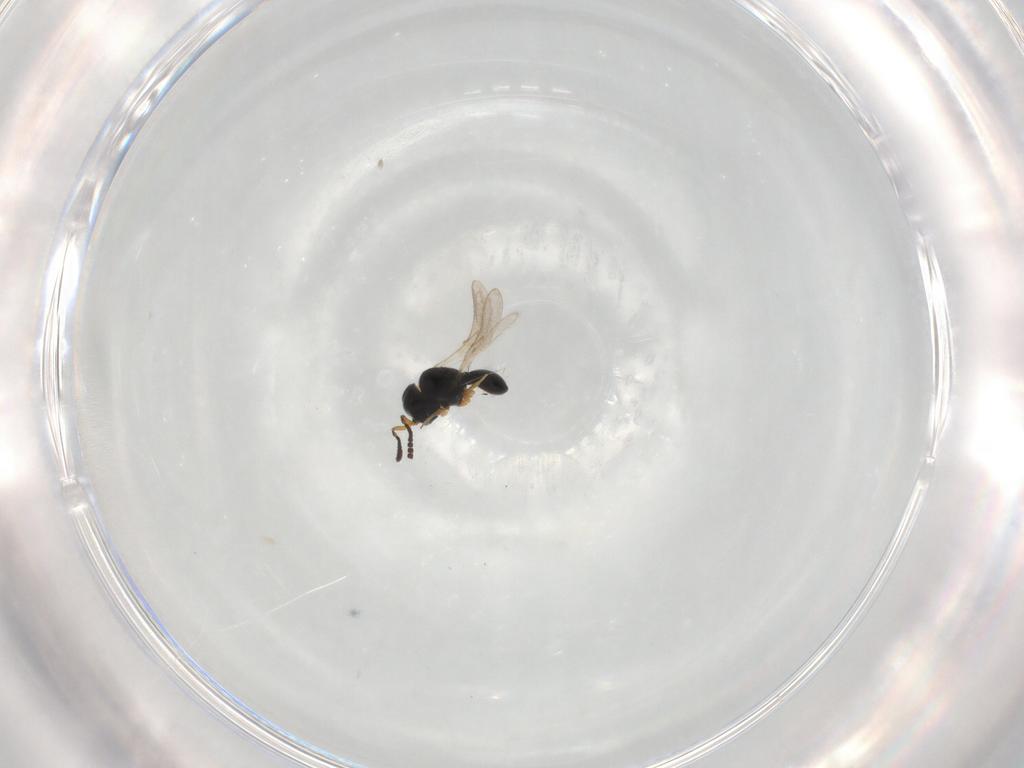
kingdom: Animalia
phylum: Arthropoda
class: Insecta
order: Hymenoptera
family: Scelionidae
